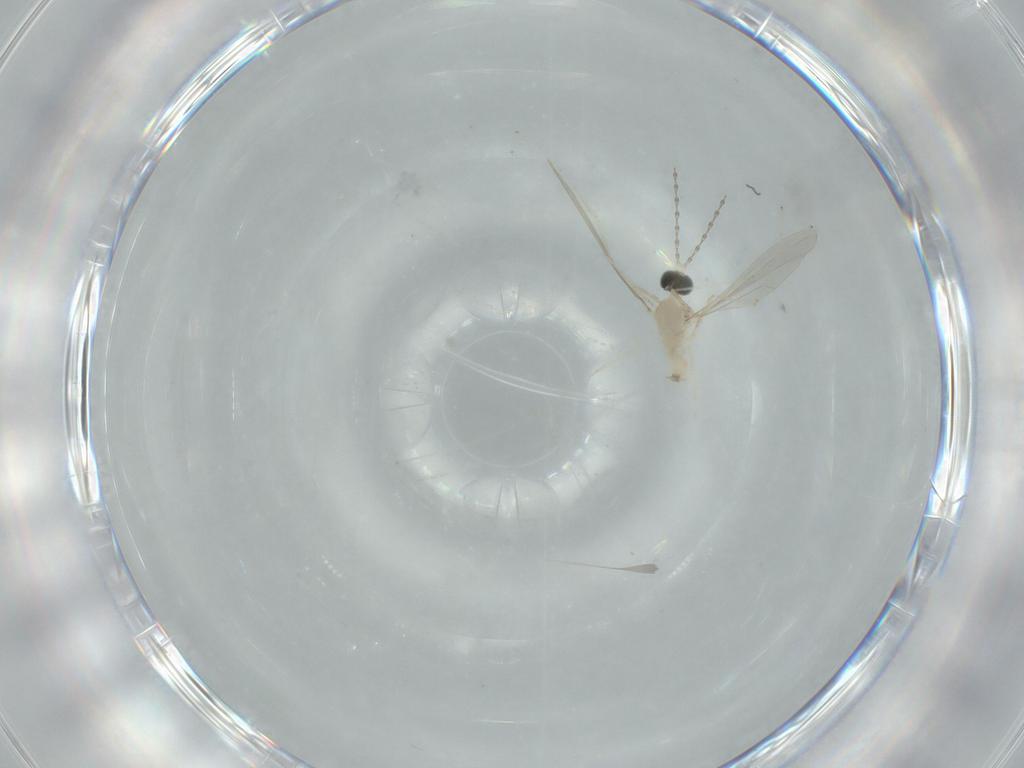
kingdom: Animalia
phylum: Arthropoda
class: Insecta
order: Diptera
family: Cecidomyiidae
